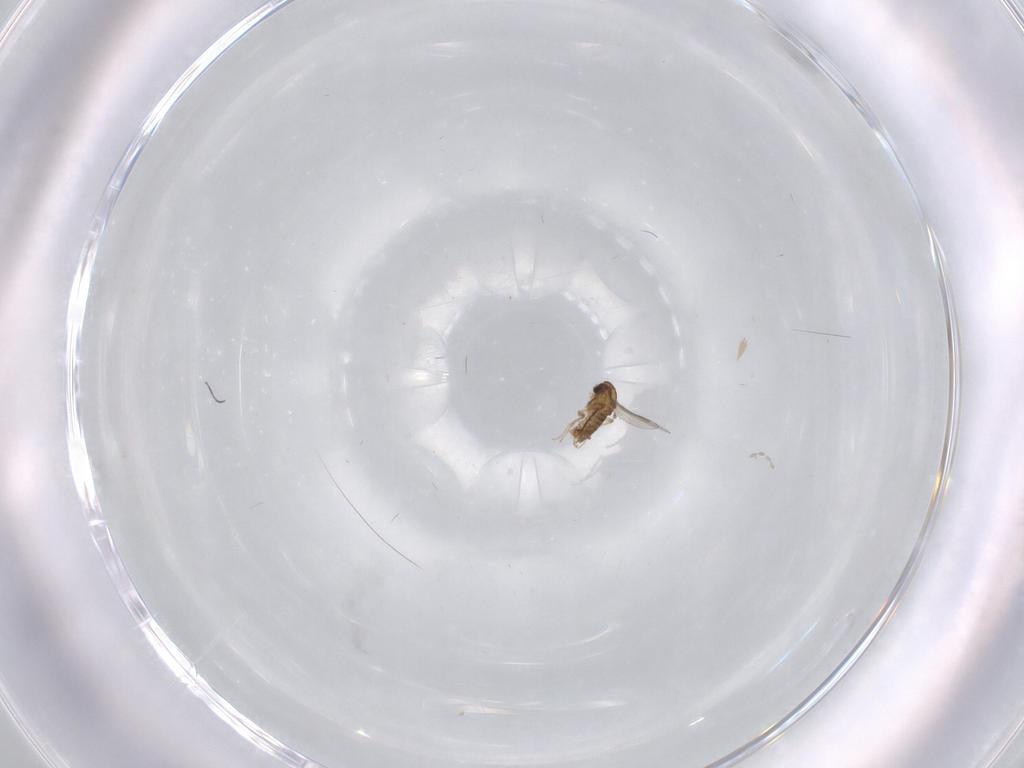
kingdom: Animalia
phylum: Arthropoda
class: Insecta
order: Diptera
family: Cecidomyiidae
